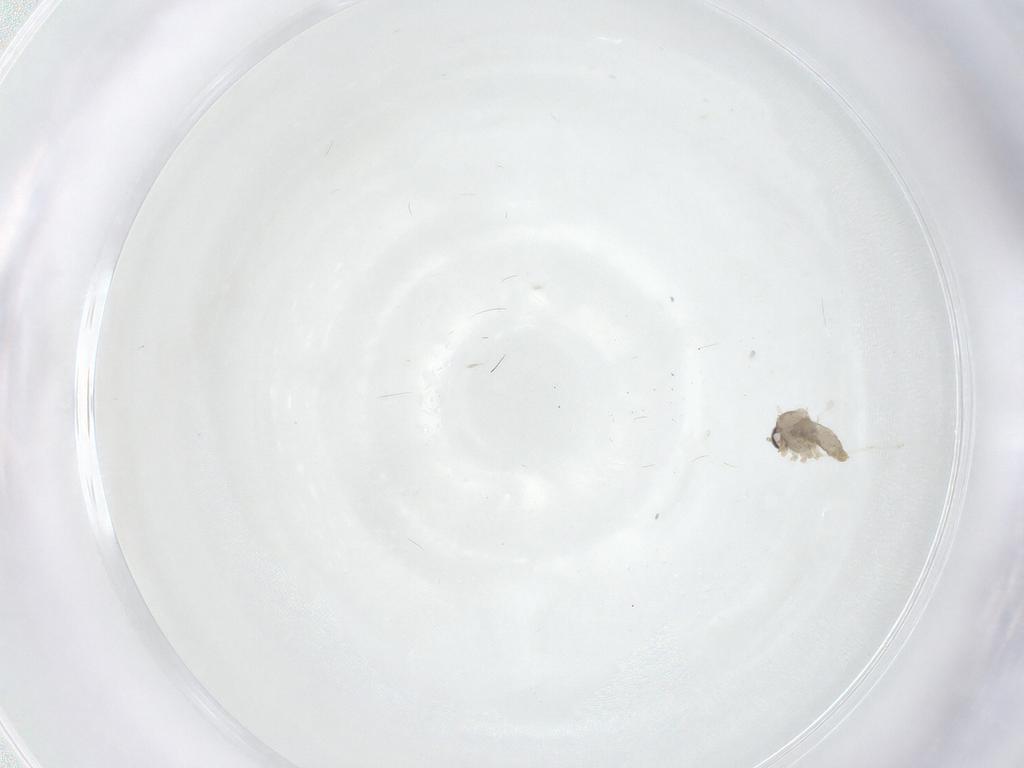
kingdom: Animalia
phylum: Arthropoda
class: Insecta
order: Diptera
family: Cecidomyiidae
